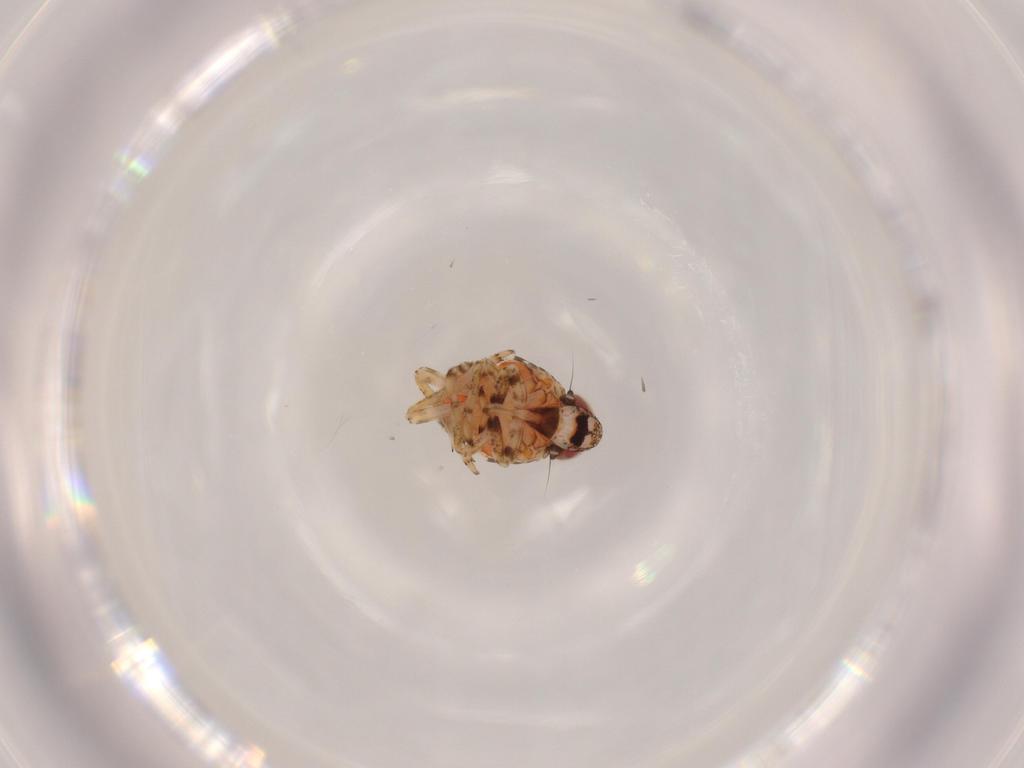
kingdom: Animalia
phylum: Arthropoda
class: Insecta
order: Hemiptera
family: Issidae
